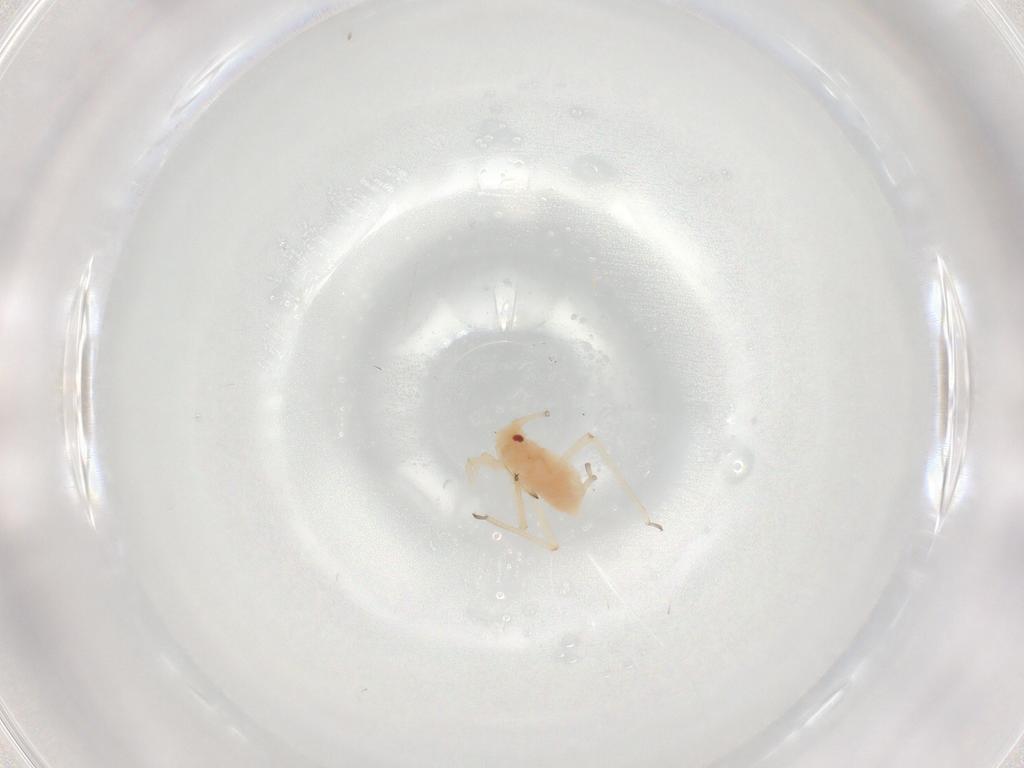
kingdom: Animalia
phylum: Arthropoda
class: Insecta
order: Hemiptera
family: Aphididae
